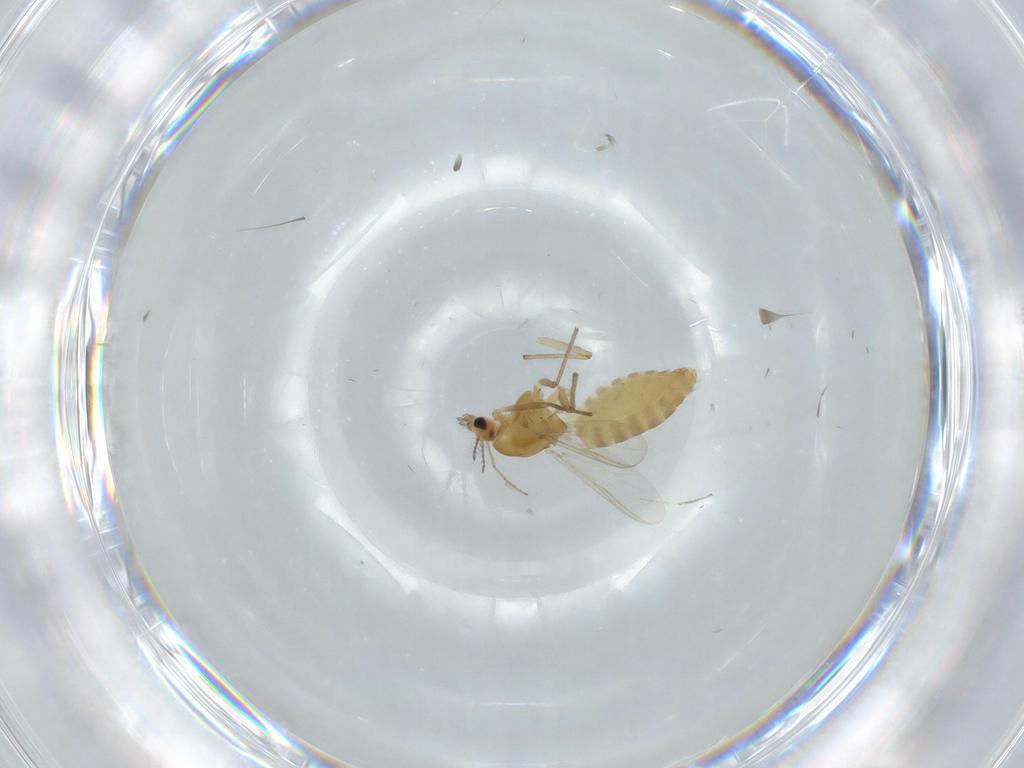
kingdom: Animalia
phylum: Arthropoda
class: Insecta
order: Diptera
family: Chironomidae
